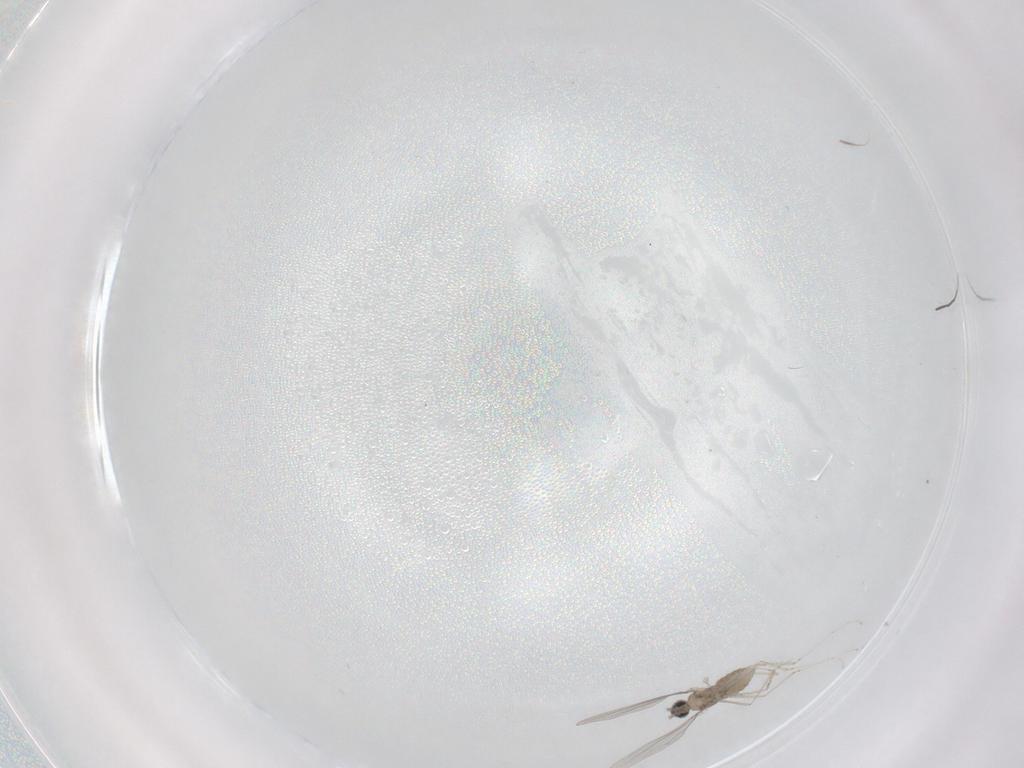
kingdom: Animalia
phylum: Arthropoda
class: Insecta
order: Diptera
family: Cecidomyiidae
